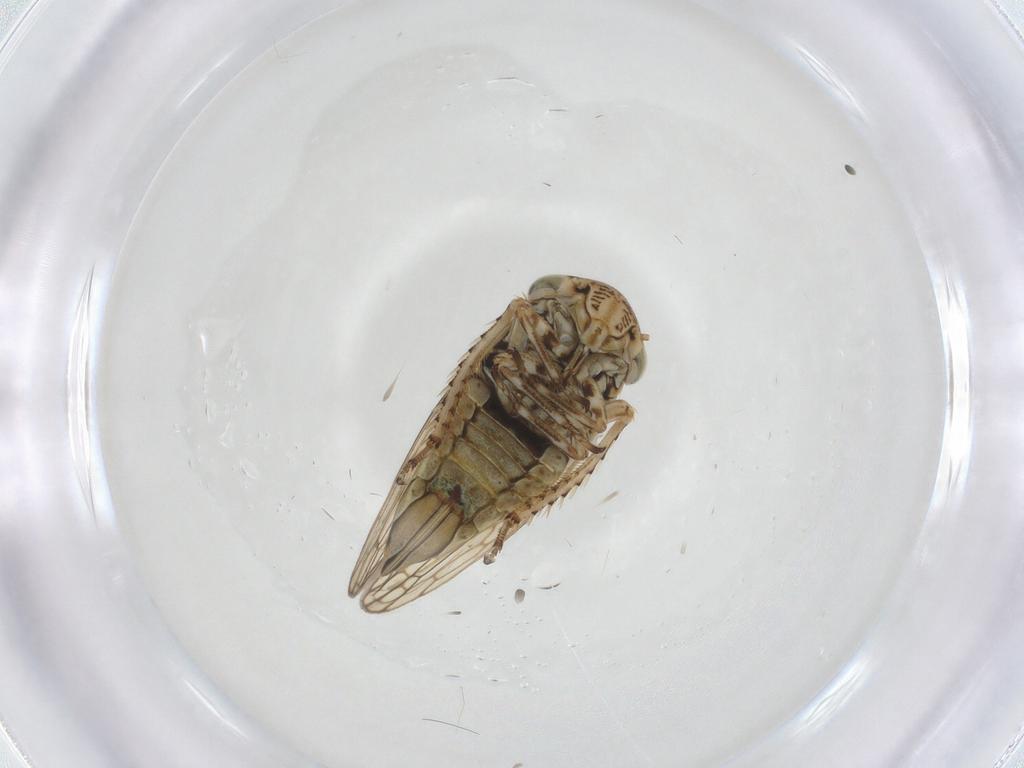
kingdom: Animalia
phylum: Arthropoda
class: Insecta
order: Hemiptera
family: Cicadellidae
